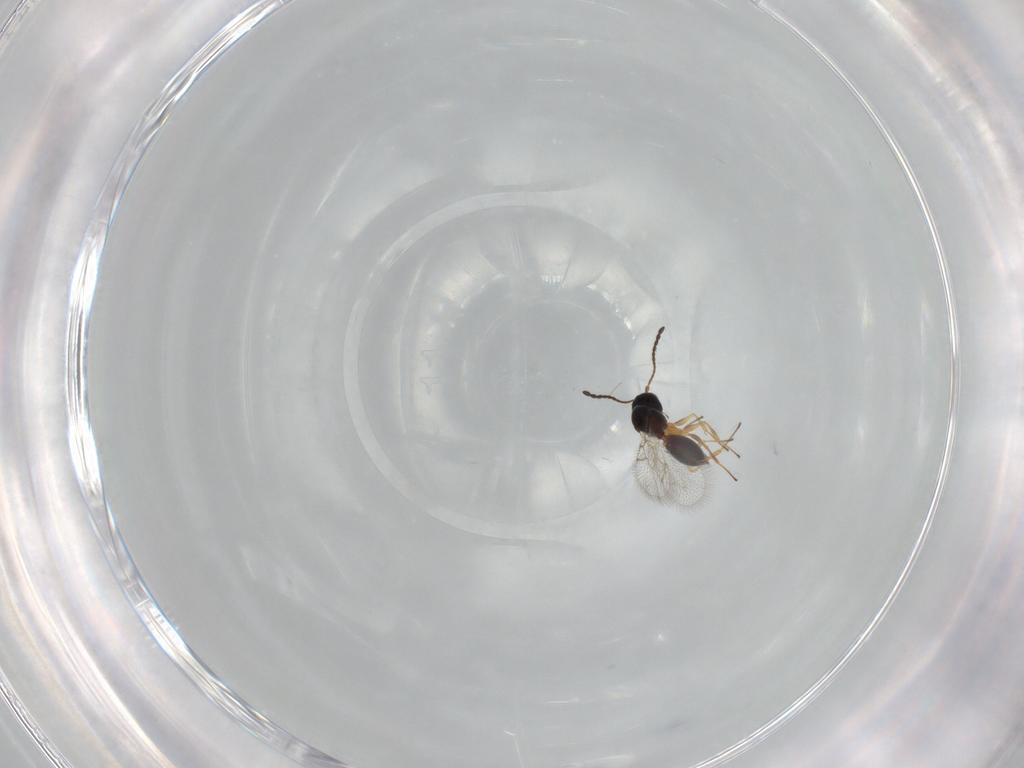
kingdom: Animalia
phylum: Arthropoda
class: Insecta
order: Hymenoptera
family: Figitidae
